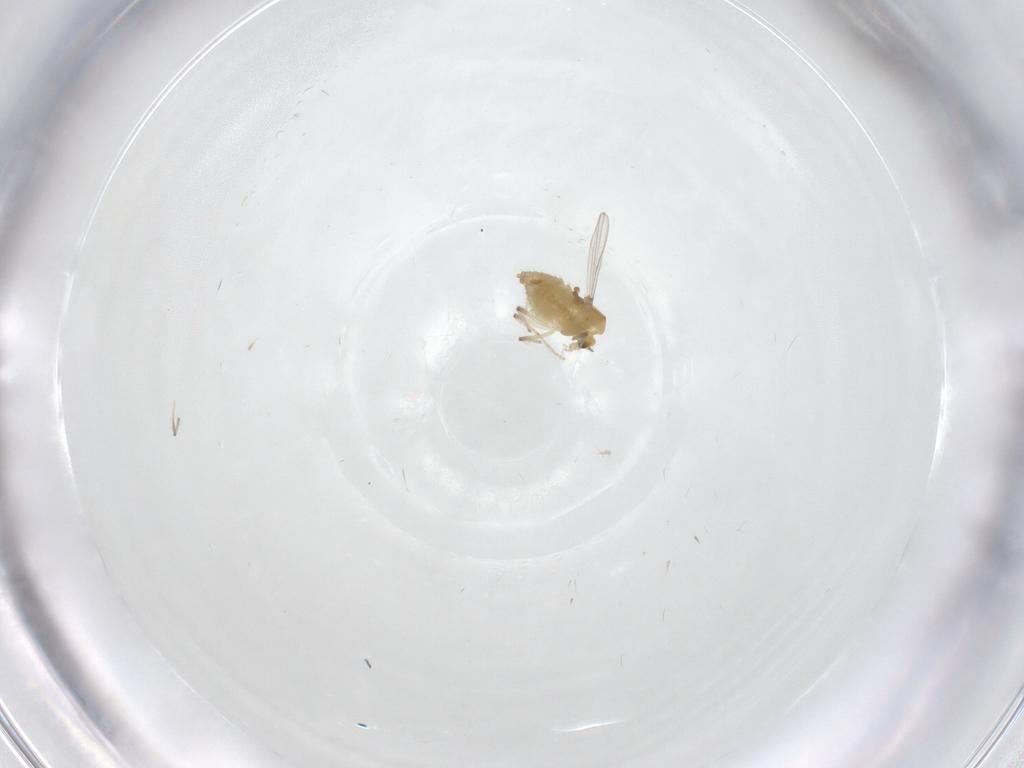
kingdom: Animalia
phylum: Arthropoda
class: Insecta
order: Diptera
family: Chironomidae
